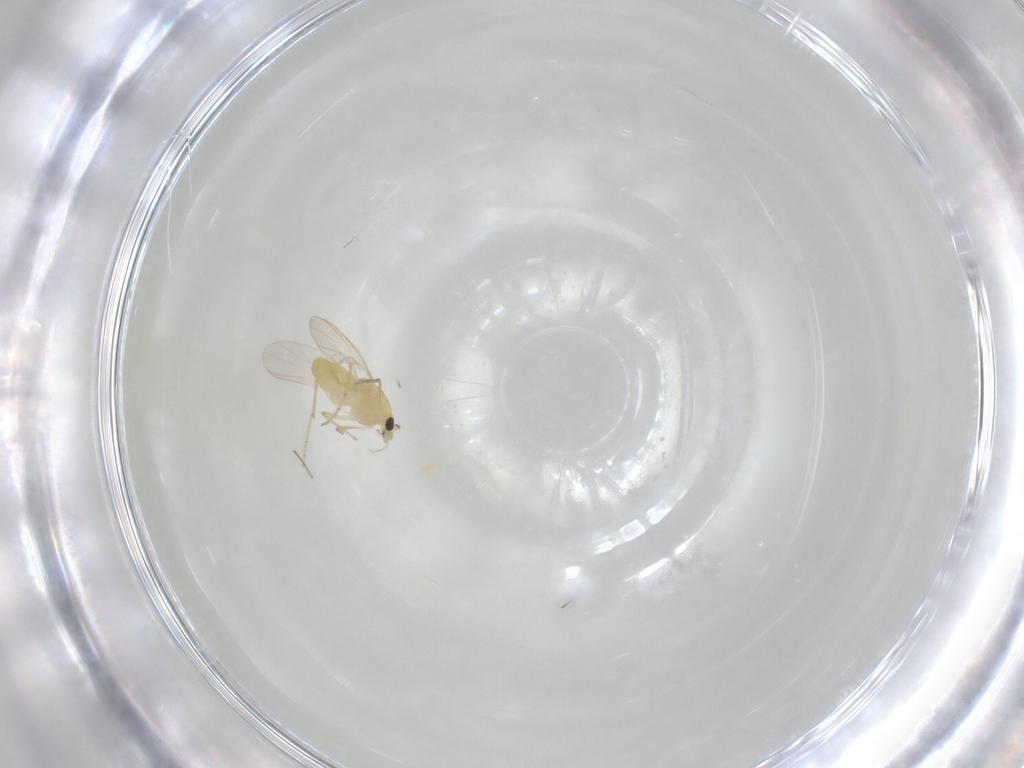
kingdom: Animalia
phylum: Arthropoda
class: Insecta
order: Diptera
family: Chironomidae
